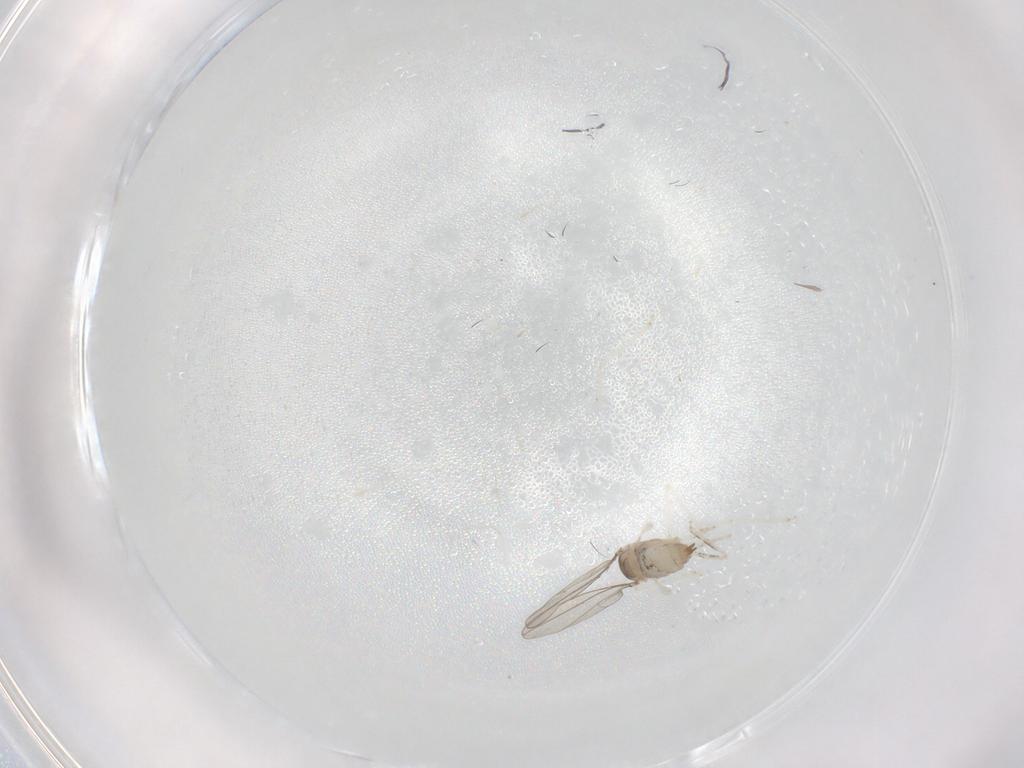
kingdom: Animalia
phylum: Arthropoda
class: Insecta
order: Diptera
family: Cecidomyiidae
